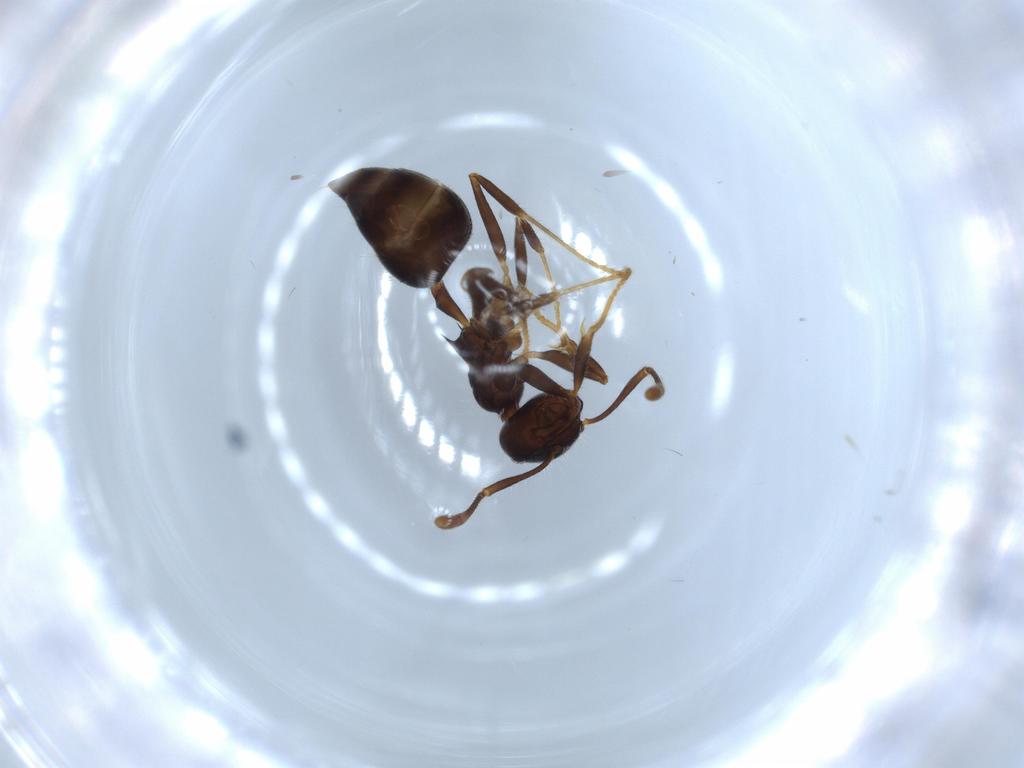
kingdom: Animalia
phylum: Arthropoda
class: Insecta
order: Hymenoptera
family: Formicidae
